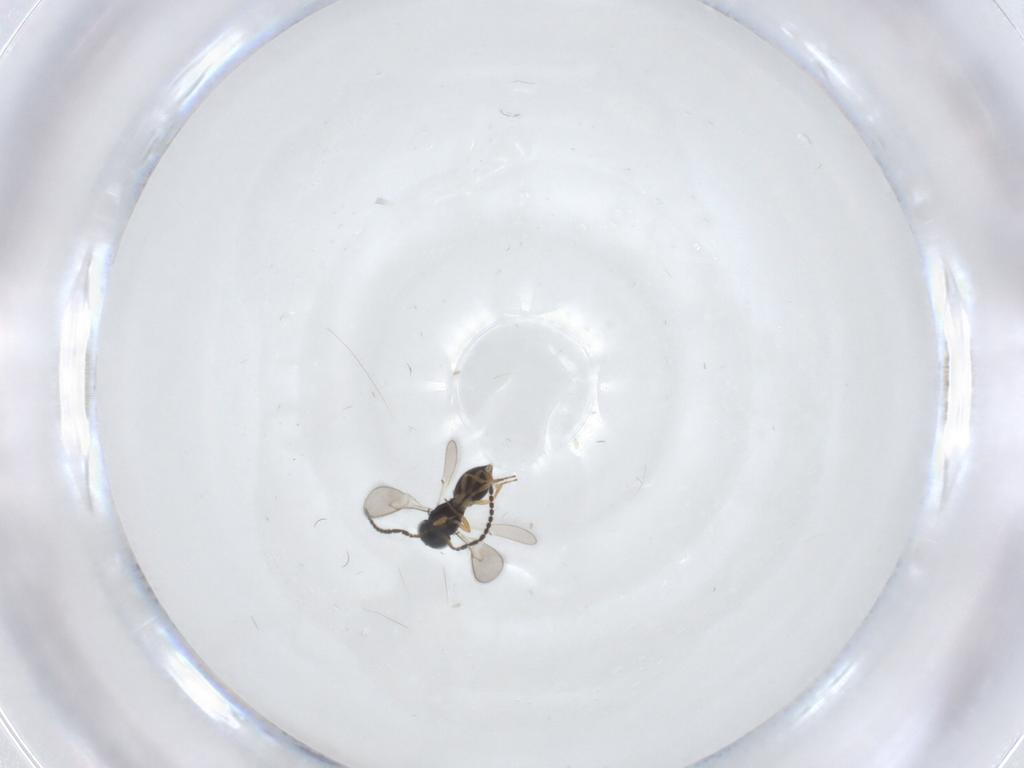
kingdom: Animalia
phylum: Arthropoda
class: Insecta
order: Hymenoptera
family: Scelionidae
